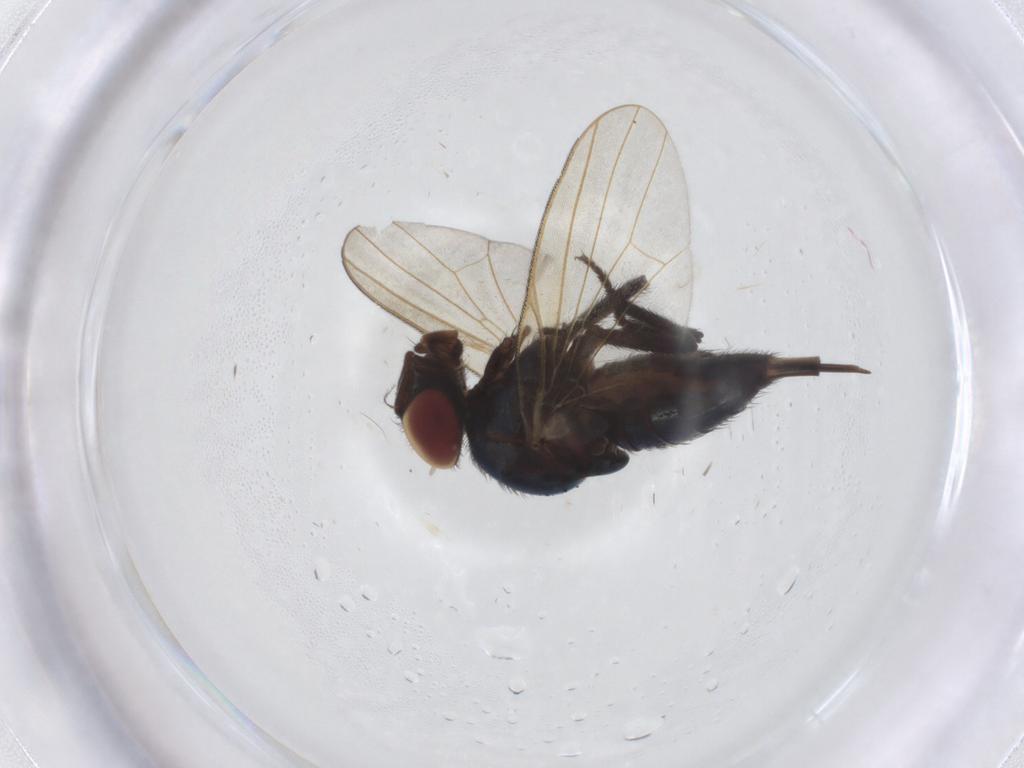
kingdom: Animalia
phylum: Arthropoda
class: Insecta
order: Diptera
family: Lonchaeidae
